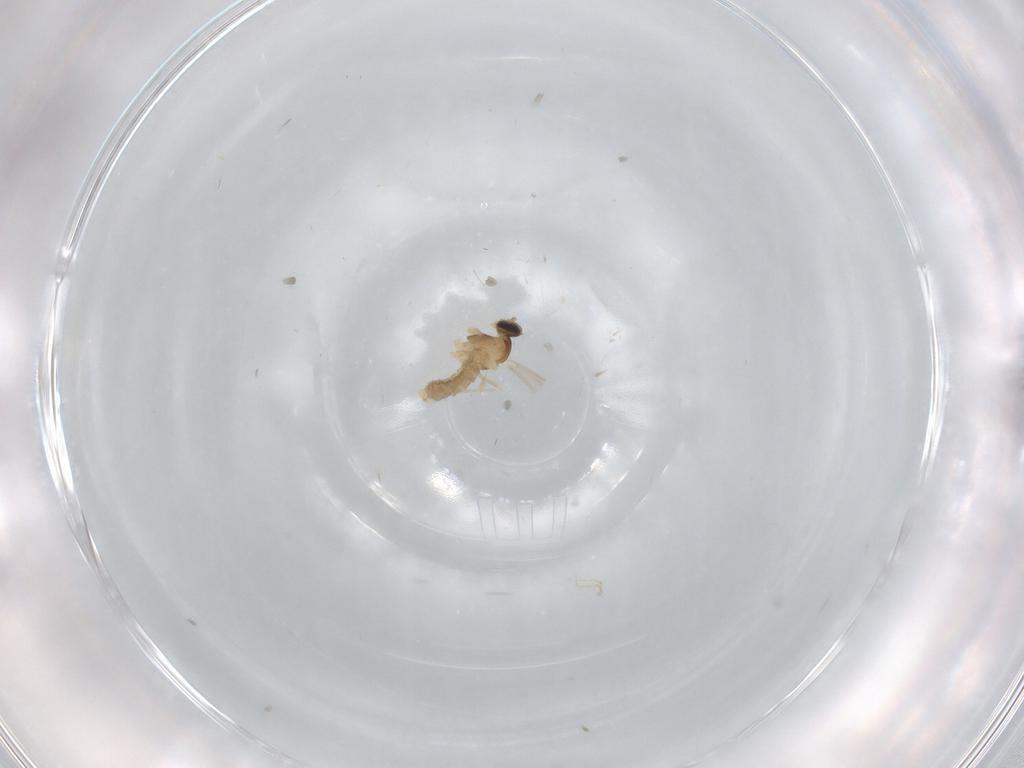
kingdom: Animalia
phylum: Arthropoda
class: Insecta
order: Diptera
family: Cecidomyiidae
